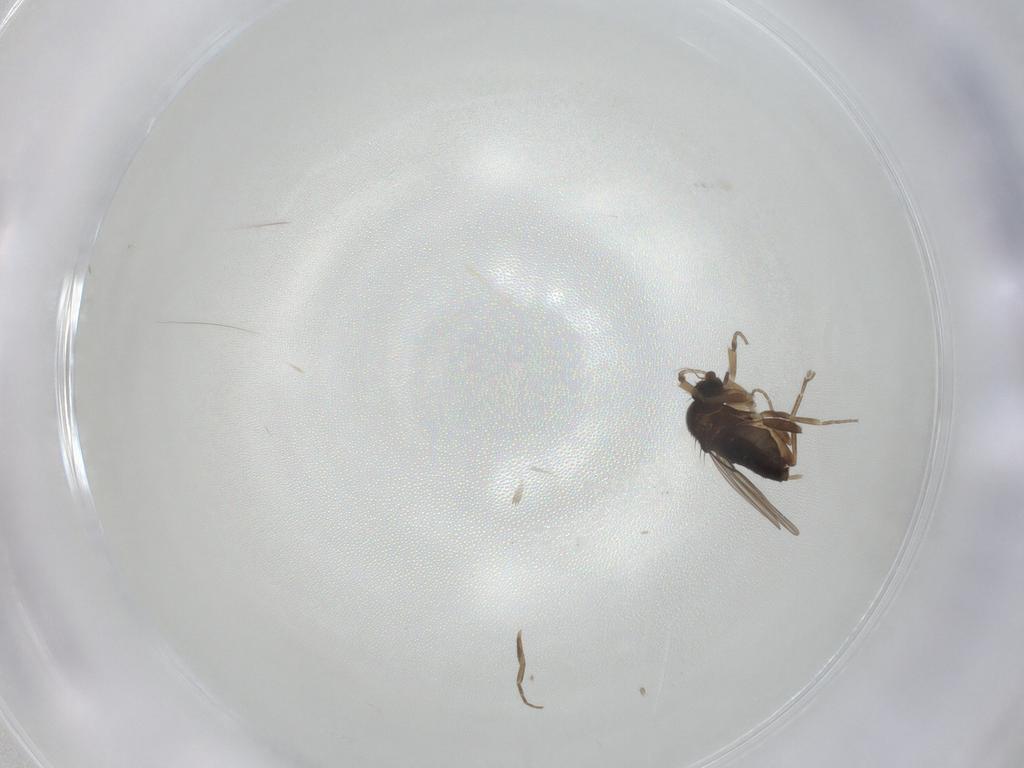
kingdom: Animalia
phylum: Arthropoda
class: Insecta
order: Diptera
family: Phoridae
